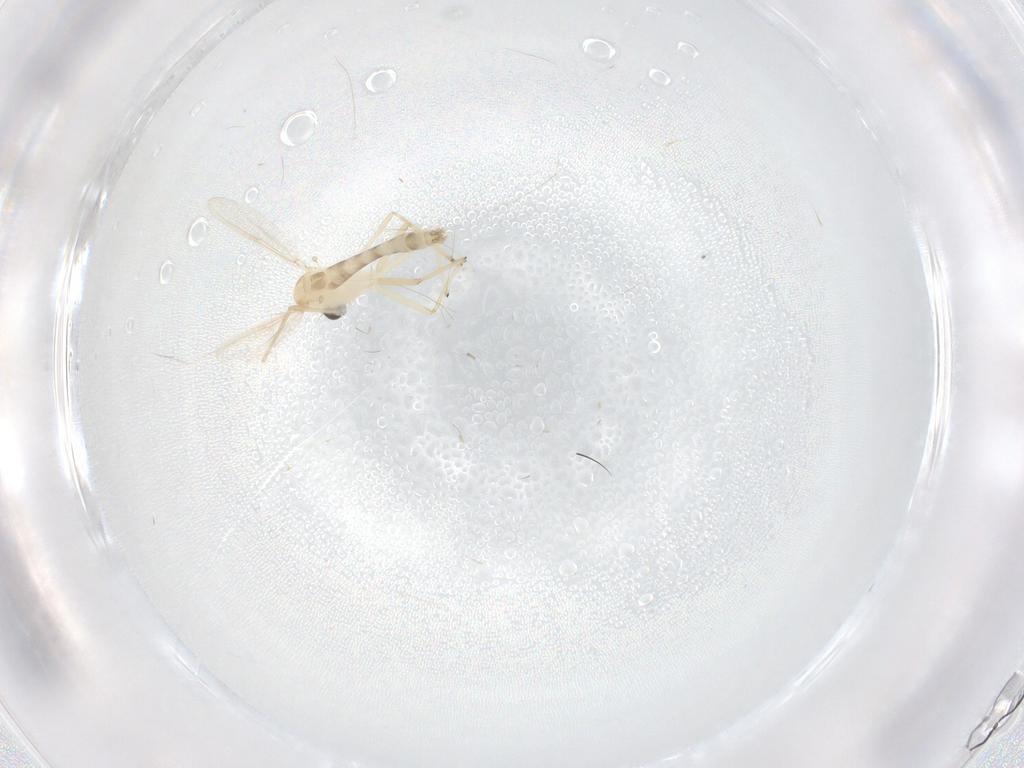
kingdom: Animalia
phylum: Arthropoda
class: Insecta
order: Diptera
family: Chironomidae
